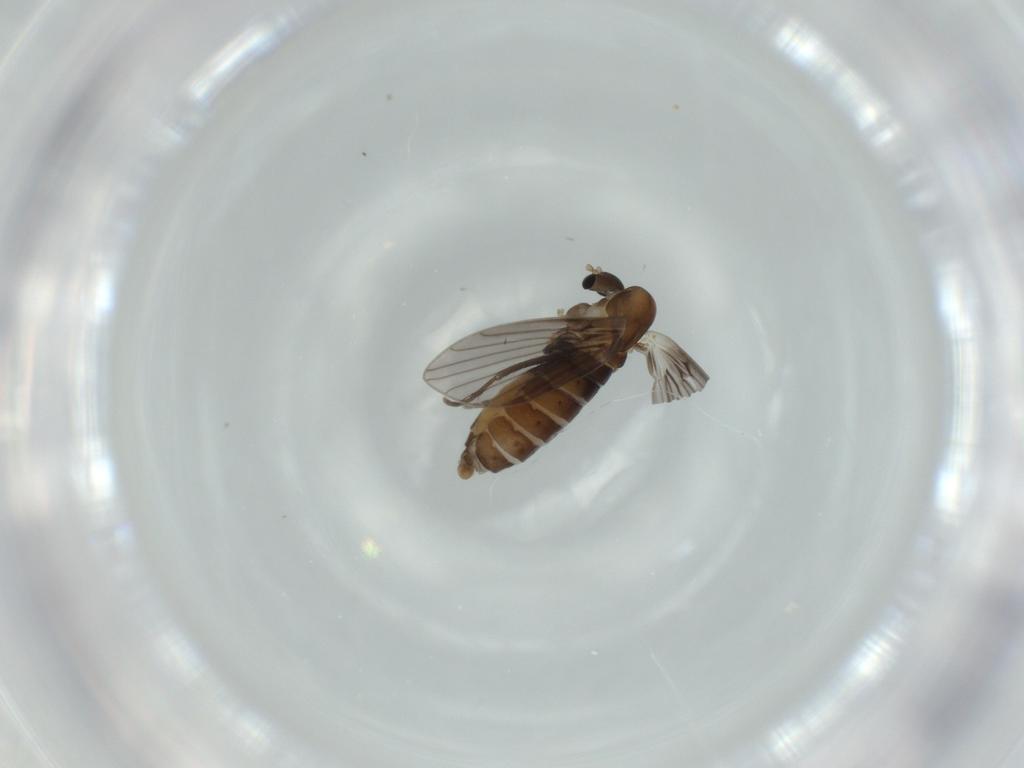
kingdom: Animalia
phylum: Arthropoda
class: Insecta
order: Diptera
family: Psychodidae
